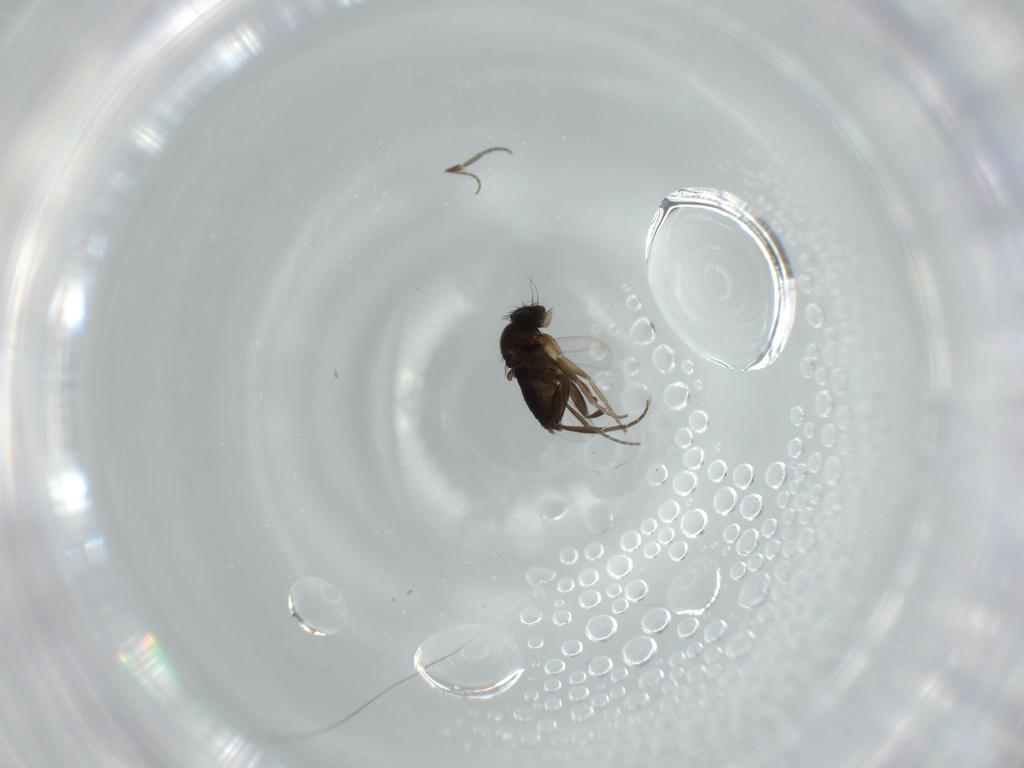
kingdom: Animalia
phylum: Arthropoda
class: Insecta
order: Diptera
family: Phoridae
